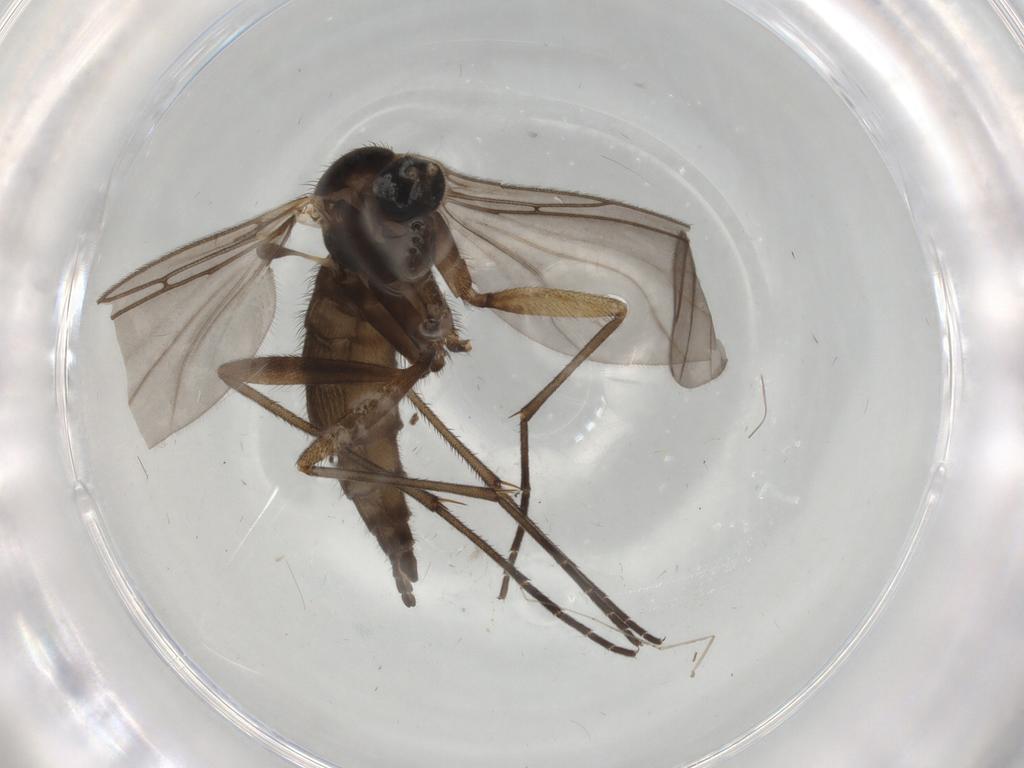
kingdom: Animalia
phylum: Arthropoda
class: Insecta
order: Diptera
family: Sciaridae
